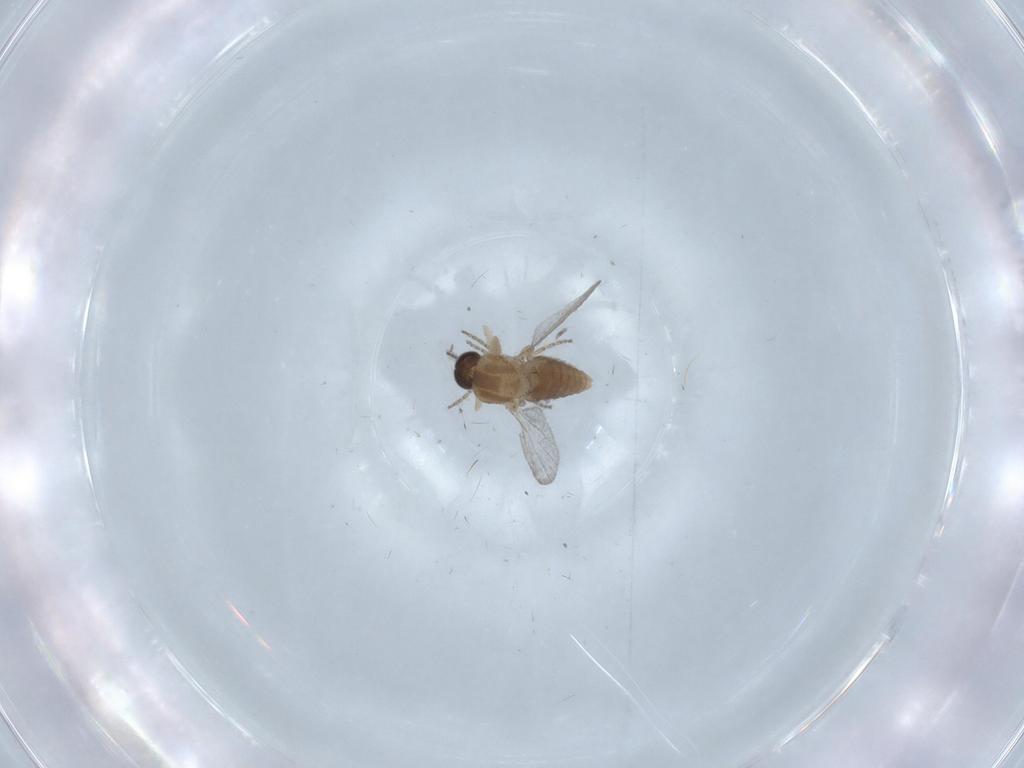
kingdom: Animalia
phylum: Arthropoda
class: Insecta
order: Diptera
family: Ceratopogonidae
